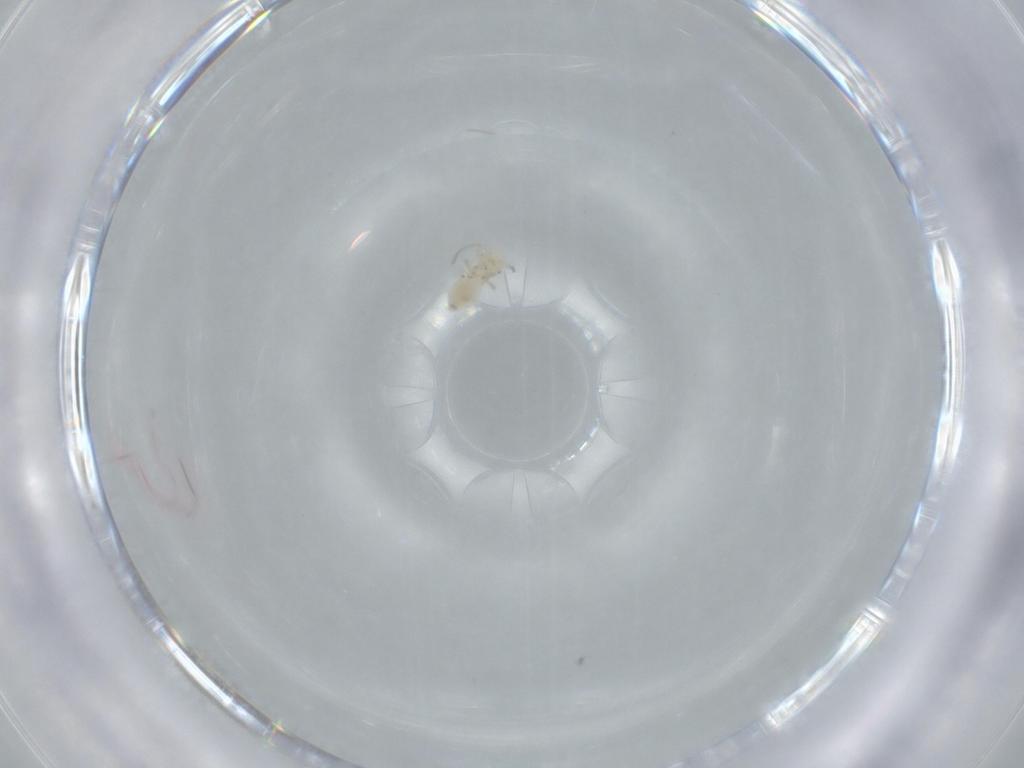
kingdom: Animalia
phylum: Arthropoda
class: Insecta
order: Psocodea
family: Caeciliusidae
